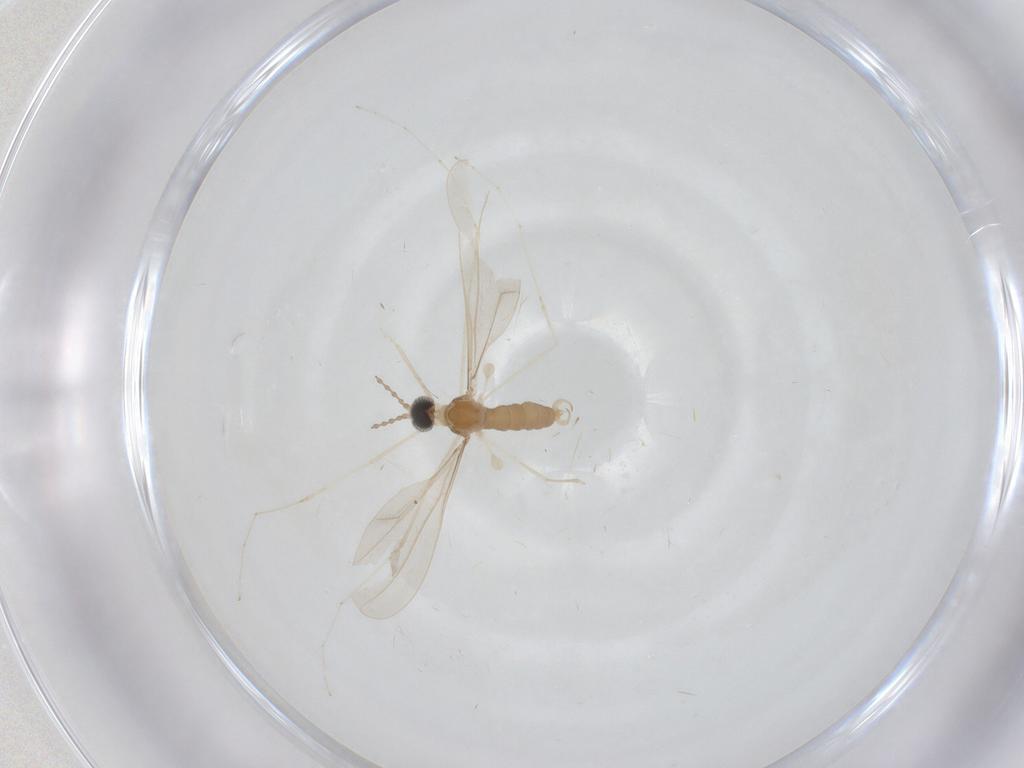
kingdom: Animalia
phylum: Arthropoda
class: Insecta
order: Diptera
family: Cecidomyiidae
